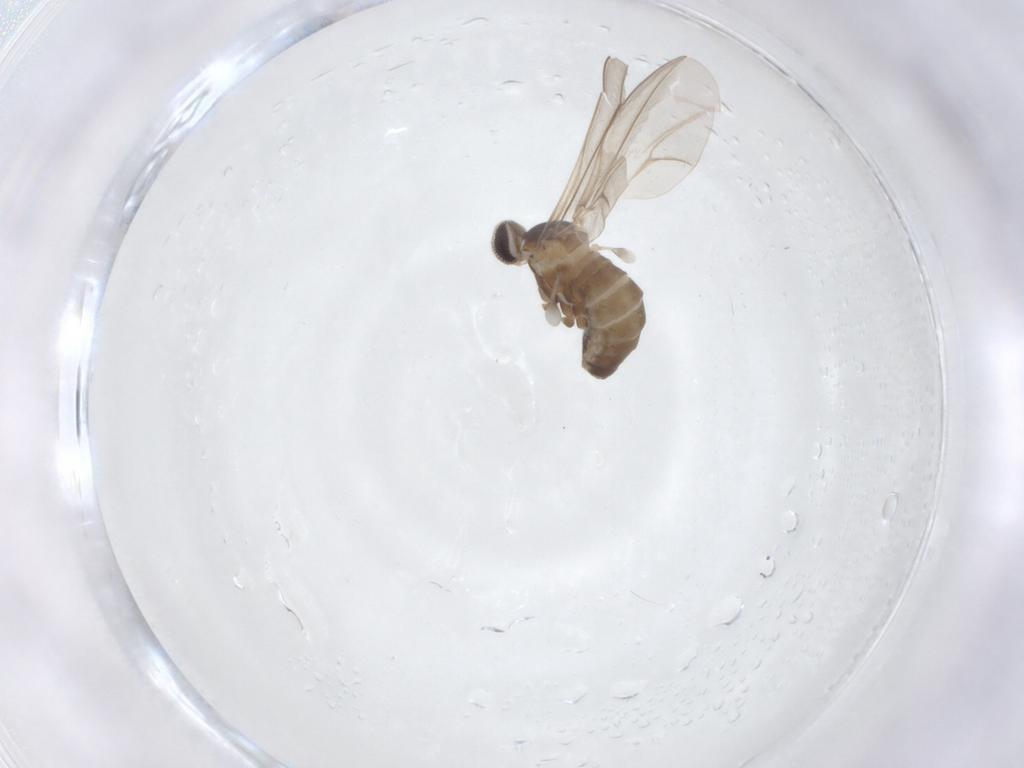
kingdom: Animalia
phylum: Arthropoda
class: Insecta
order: Diptera
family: Cecidomyiidae
